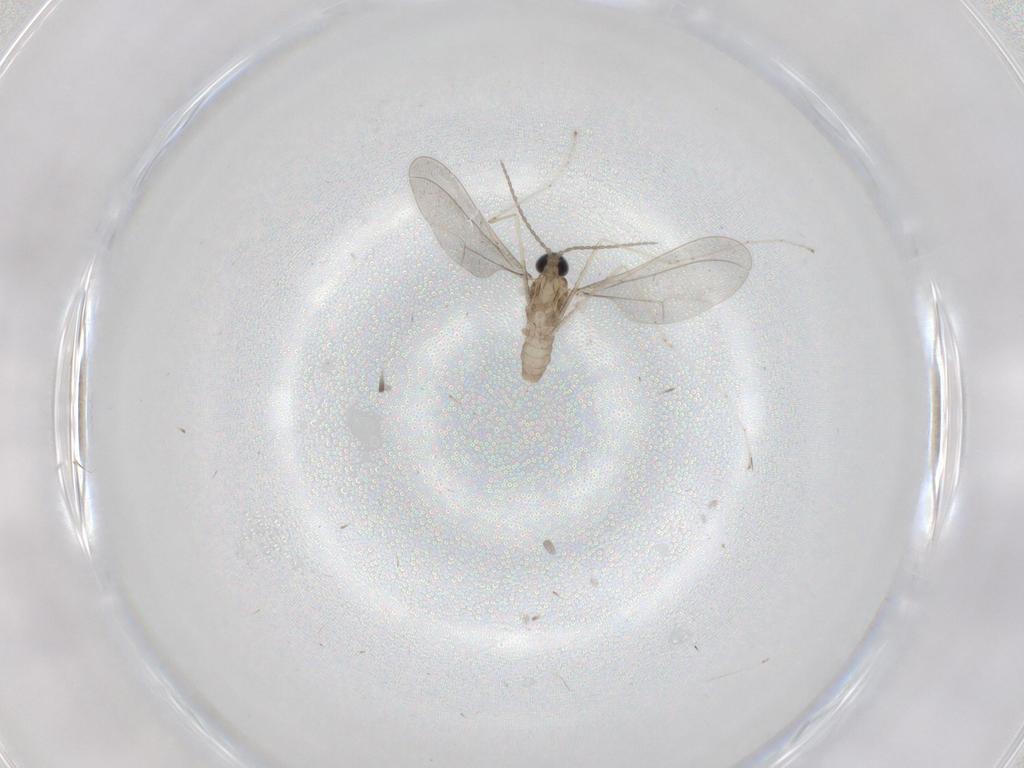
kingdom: Animalia
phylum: Arthropoda
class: Insecta
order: Diptera
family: Cecidomyiidae
